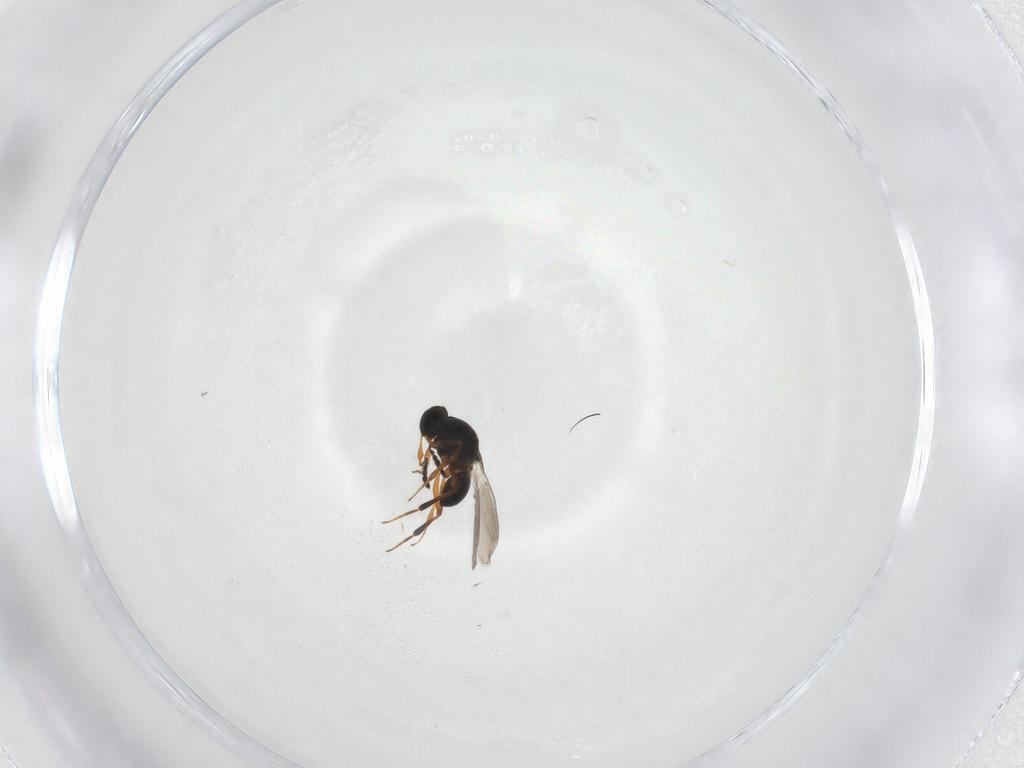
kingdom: Animalia
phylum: Arthropoda
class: Insecta
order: Hymenoptera
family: Platygastridae
